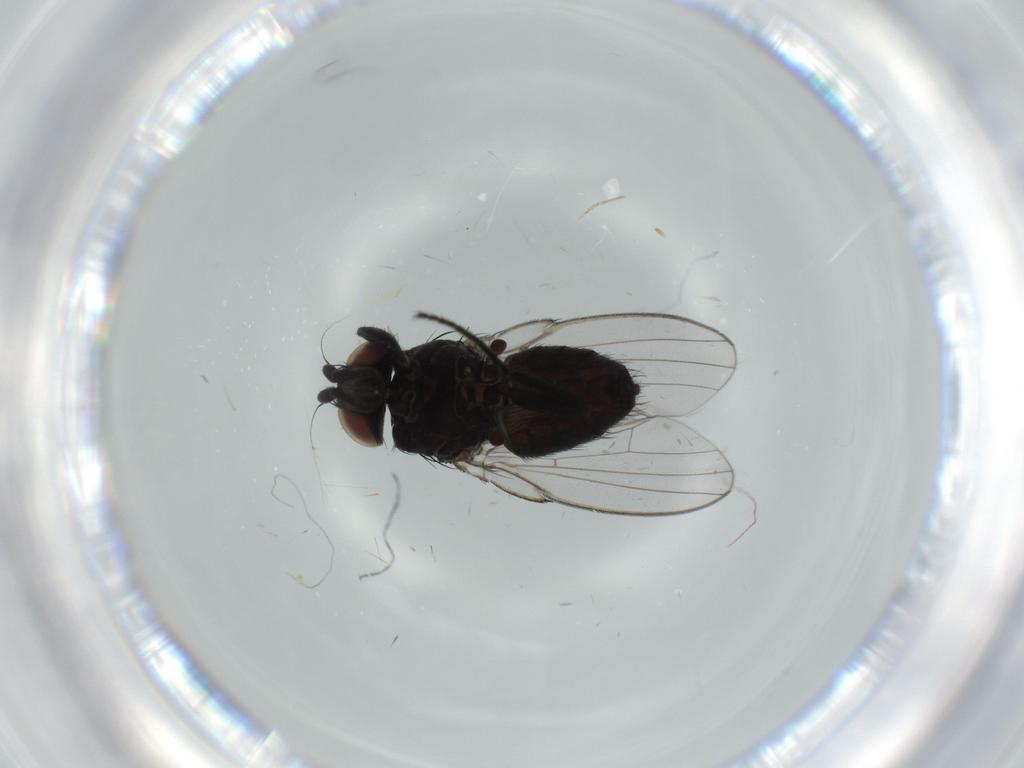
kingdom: Animalia
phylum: Arthropoda
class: Insecta
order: Diptera
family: Milichiidae
